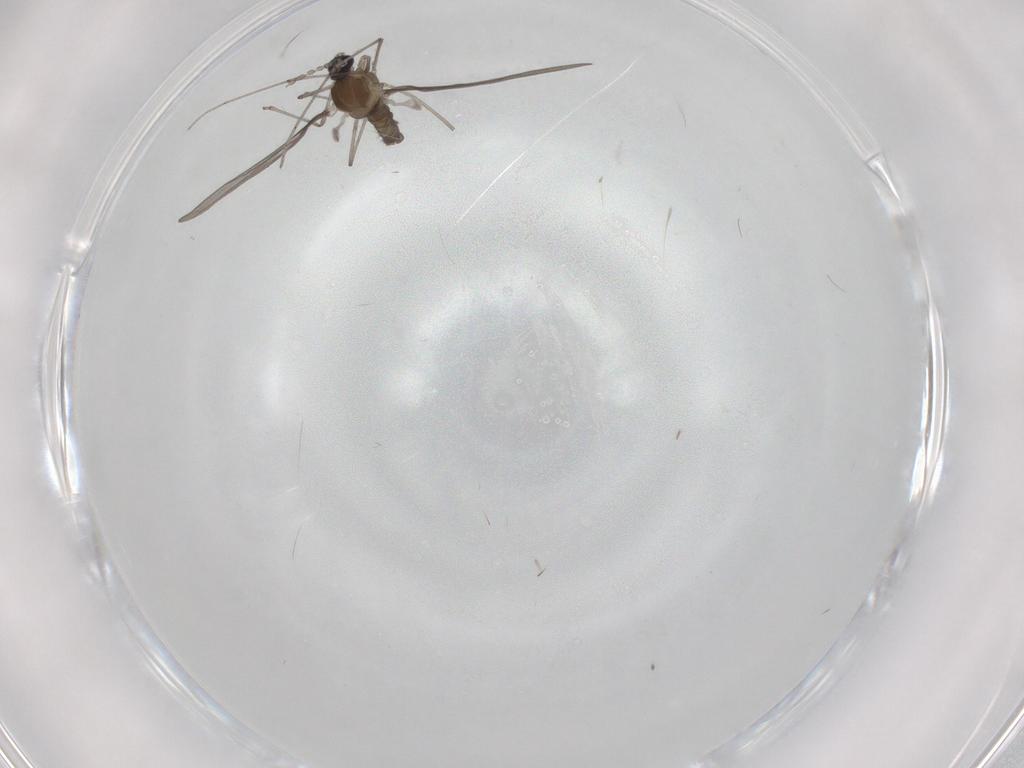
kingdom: Animalia
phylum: Arthropoda
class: Insecta
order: Diptera
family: Cecidomyiidae
